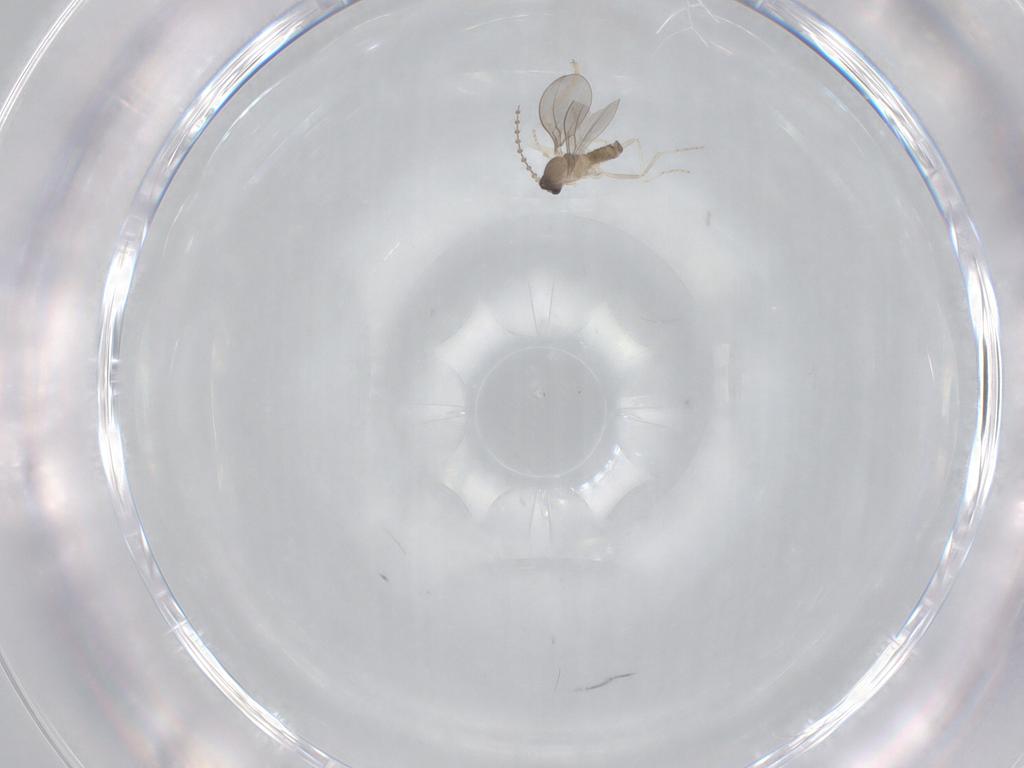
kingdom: Animalia
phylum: Arthropoda
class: Insecta
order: Diptera
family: Cecidomyiidae
